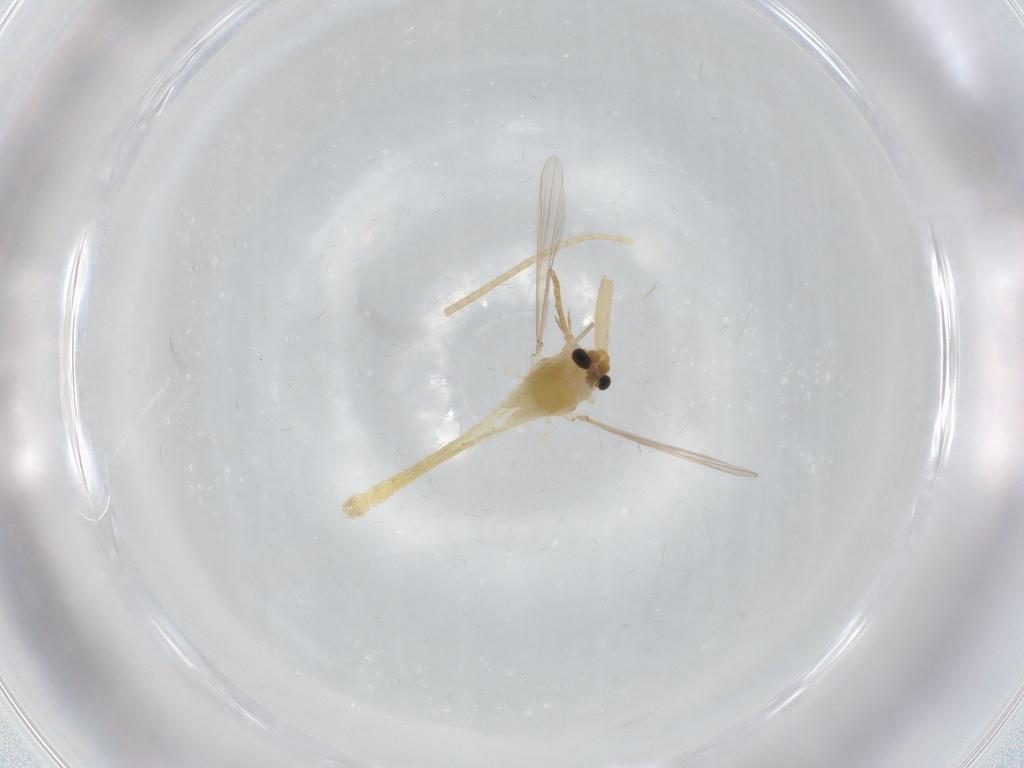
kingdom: Animalia
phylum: Arthropoda
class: Insecta
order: Diptera
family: Chironomidae
